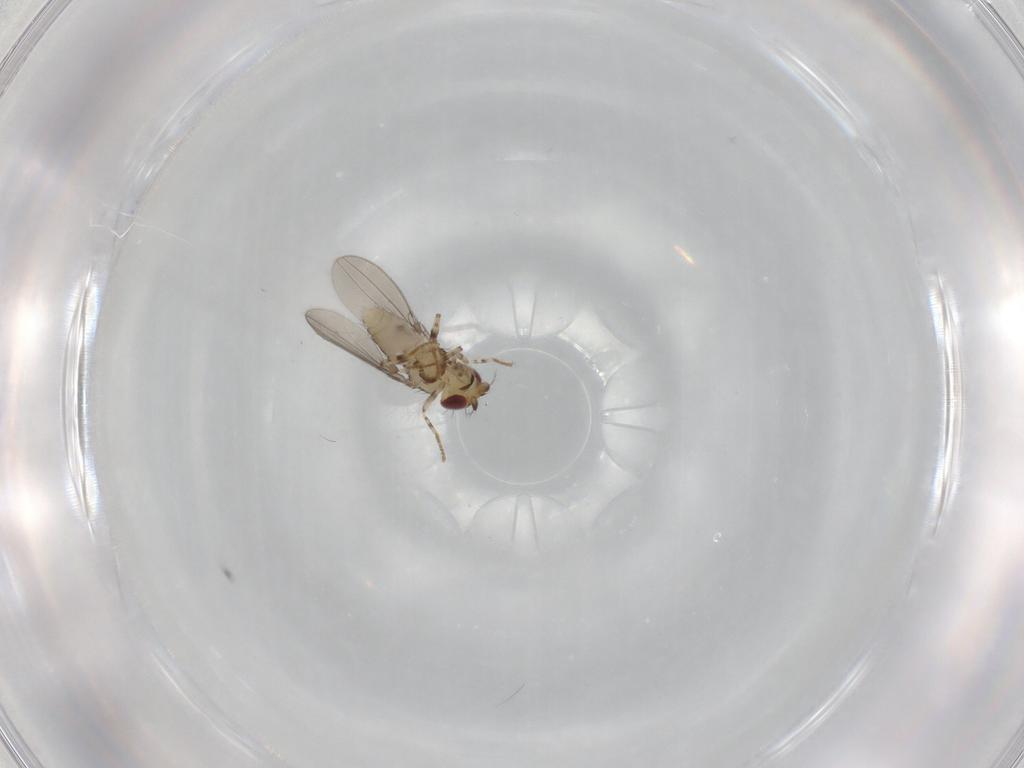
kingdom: Animalia
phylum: Arthropoda
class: Insecta
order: Diptera
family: Asteiidae
